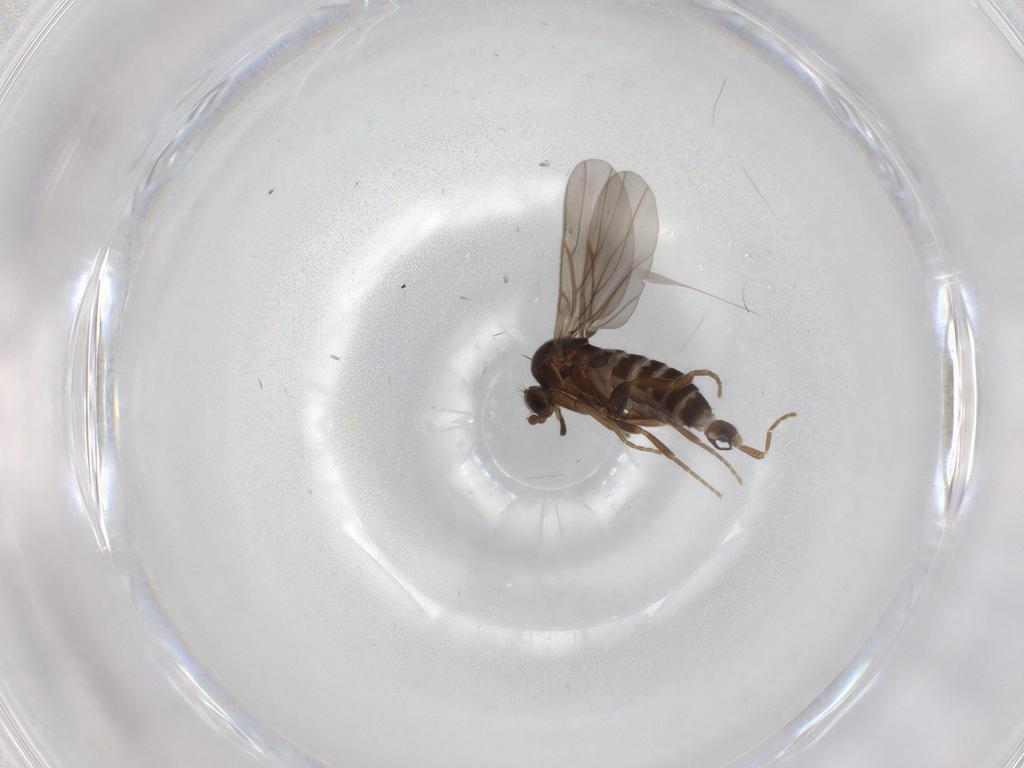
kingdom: Animalia
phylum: Arthropoda
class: Insecta
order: Diptera
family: Phoridae
